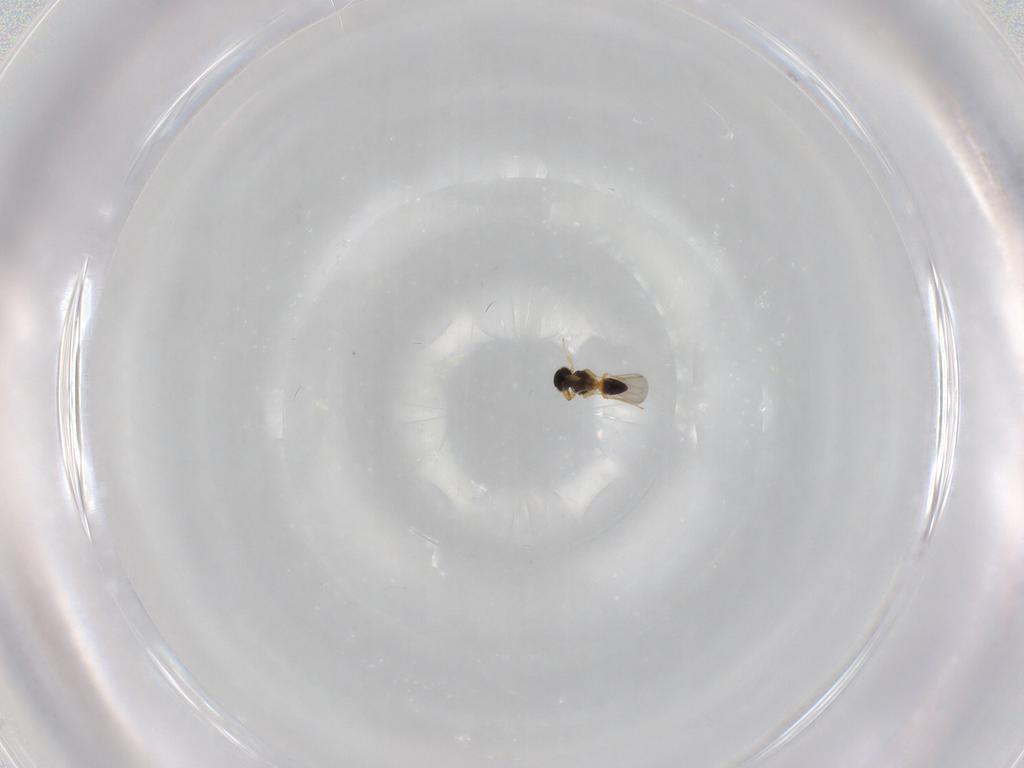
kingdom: Animalia
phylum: Arthropoda
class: Insecta
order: Hymenoptera
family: Platygastridae
